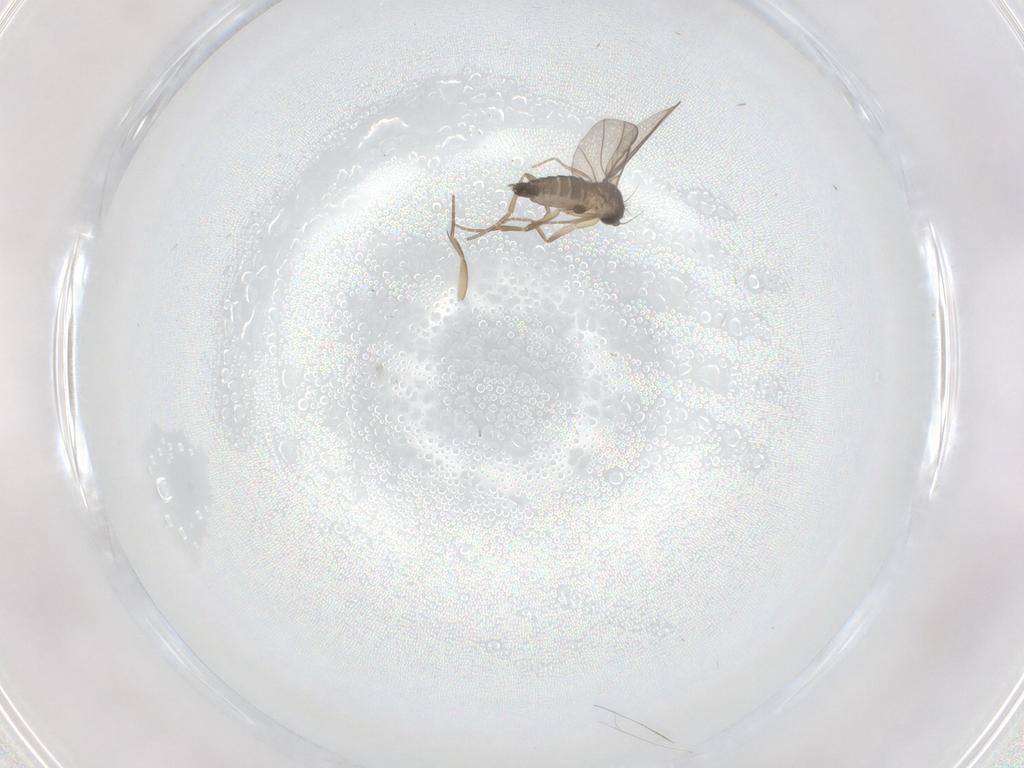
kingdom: Animalia
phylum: Arthropoda
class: Insecta
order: Diptera
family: Phoridae
